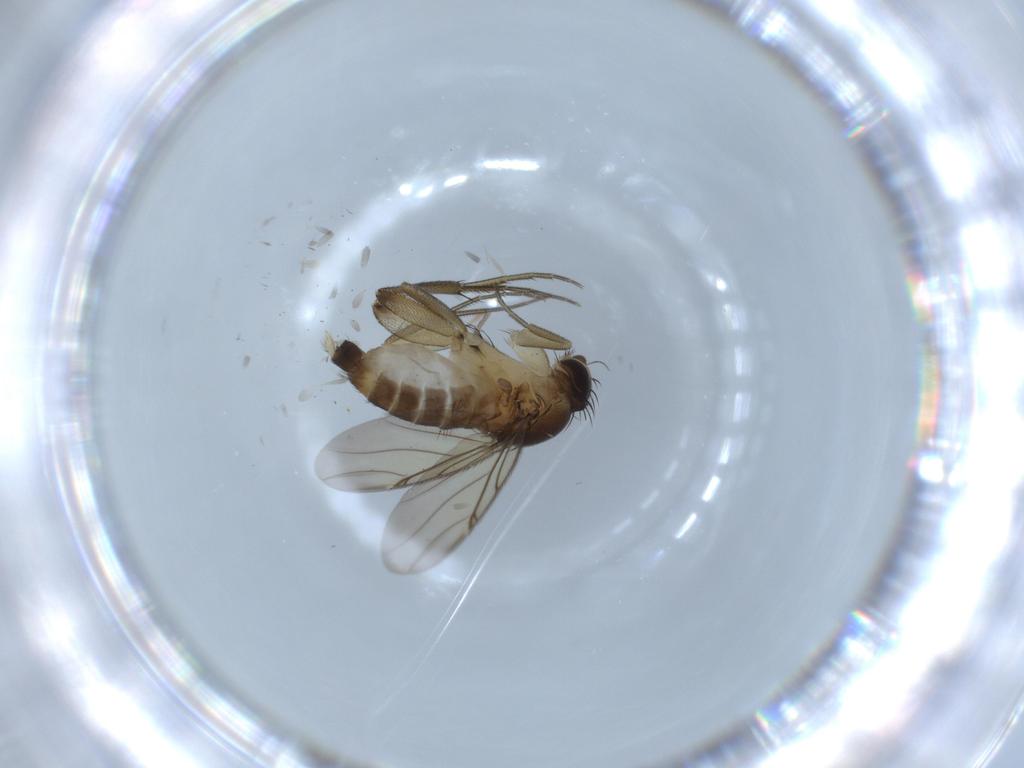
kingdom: Animalia
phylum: Arthropoda
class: Insecta
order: Diptera
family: Phoridae
